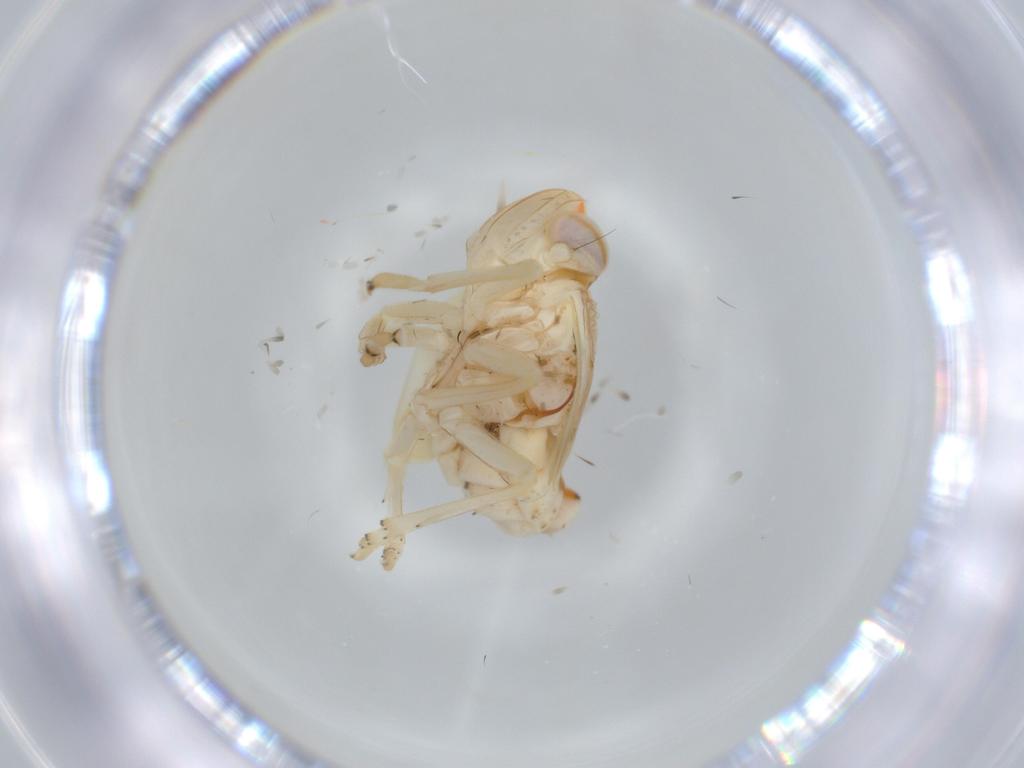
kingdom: Animalia
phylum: Arthropoda
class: Insecta
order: Hemiptera
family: Nogodinidae
